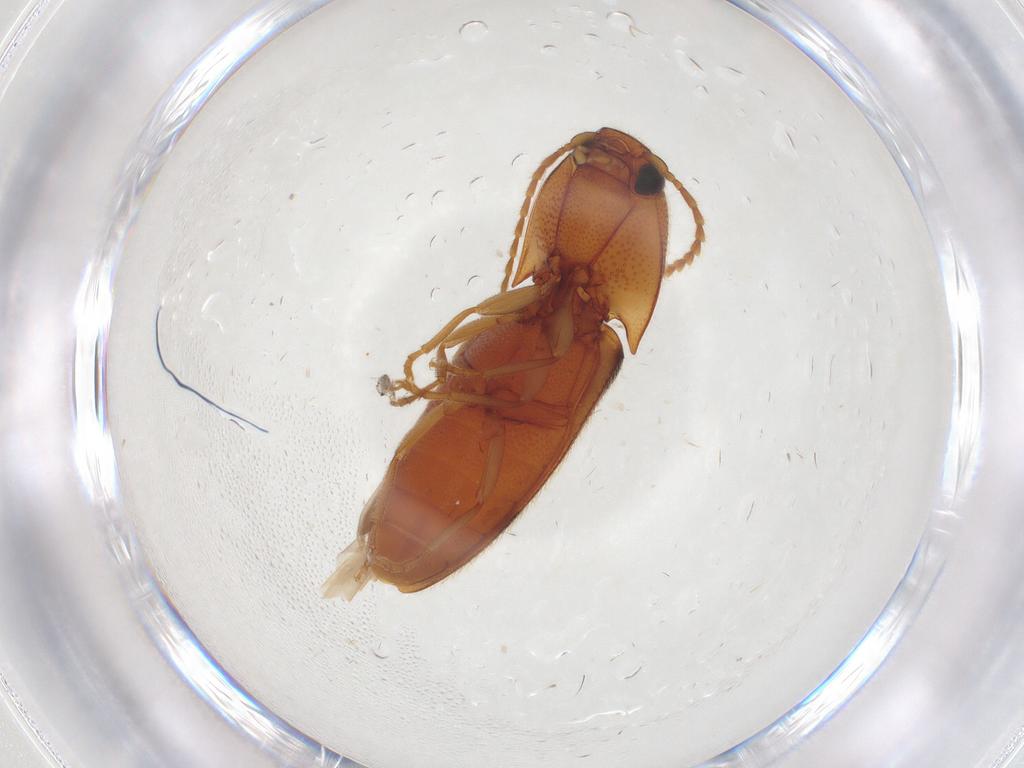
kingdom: Animalia
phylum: Arthropoda
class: Insecta
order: Coleoptera
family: Aderidae
